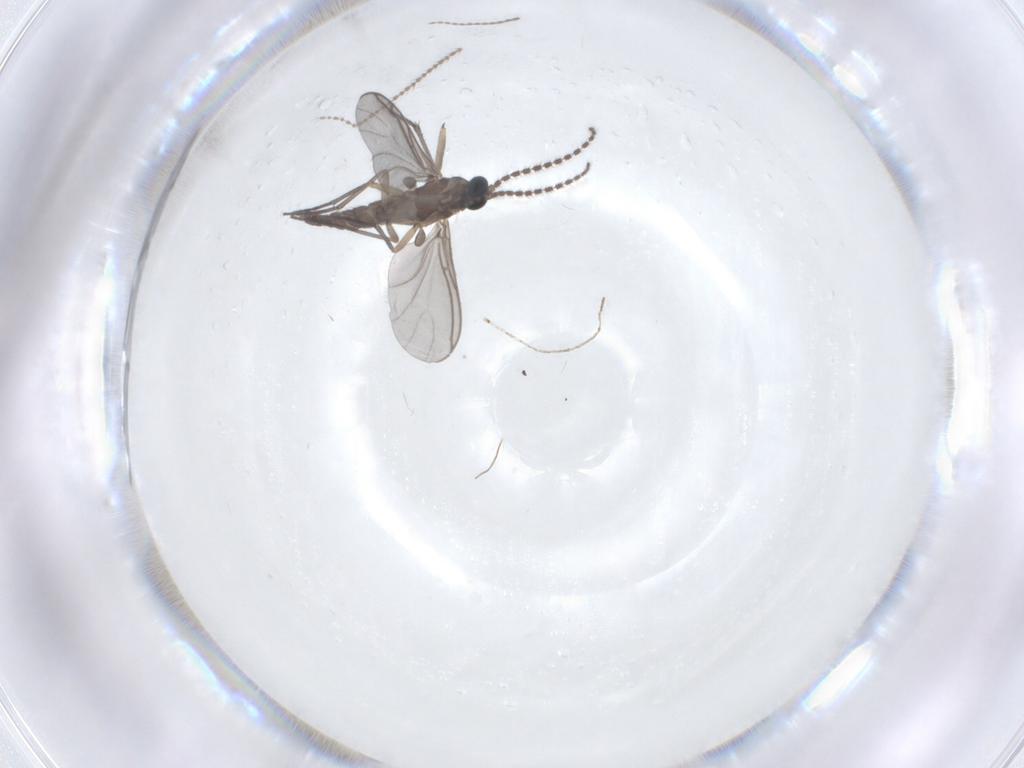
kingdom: Animalia
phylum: Arthropoda
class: Insecta
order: Diptera
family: Sciaridae
